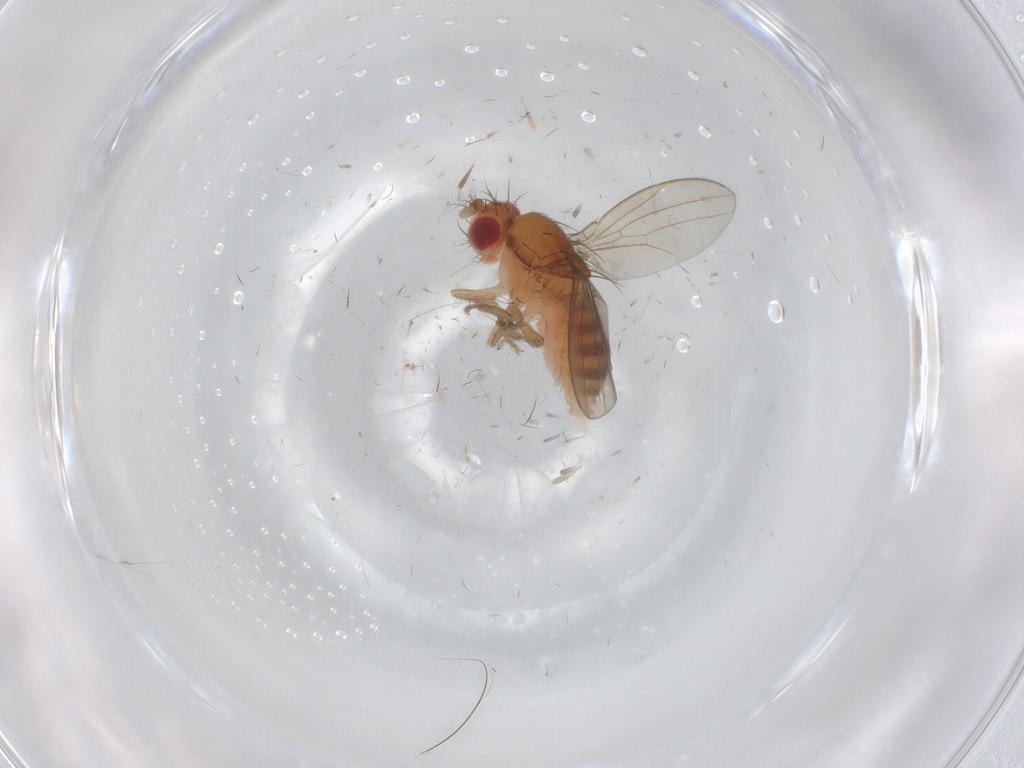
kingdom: Animalia
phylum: Arthropoda
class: Insecta
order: Diptera
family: Drosophilidae
